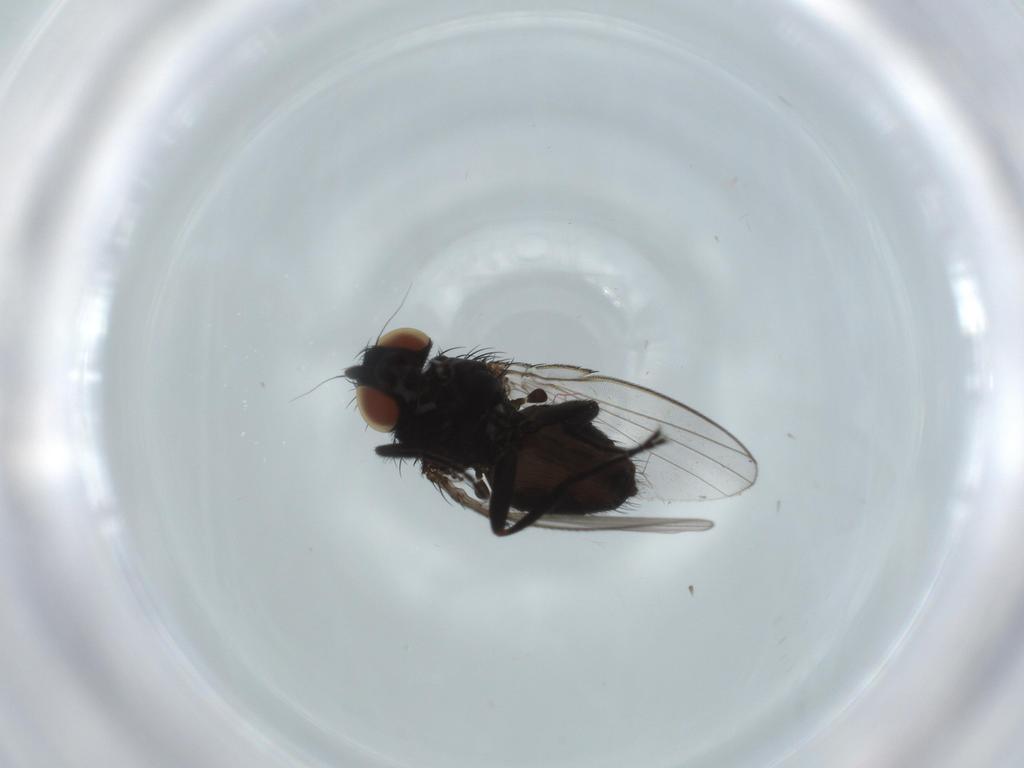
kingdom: Animalia
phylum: Arthropoda
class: Insecta
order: Diptera
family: Milichiidae
